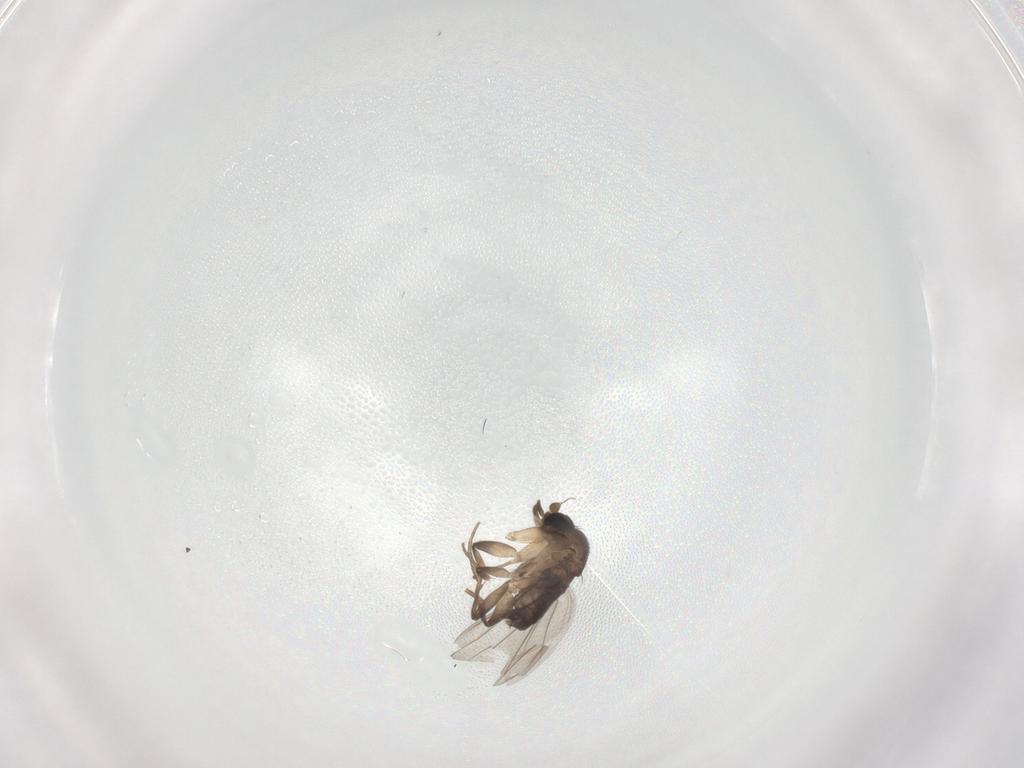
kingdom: Animalia
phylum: Arthropoda
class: Insecta
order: Diptera
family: Phoridae
